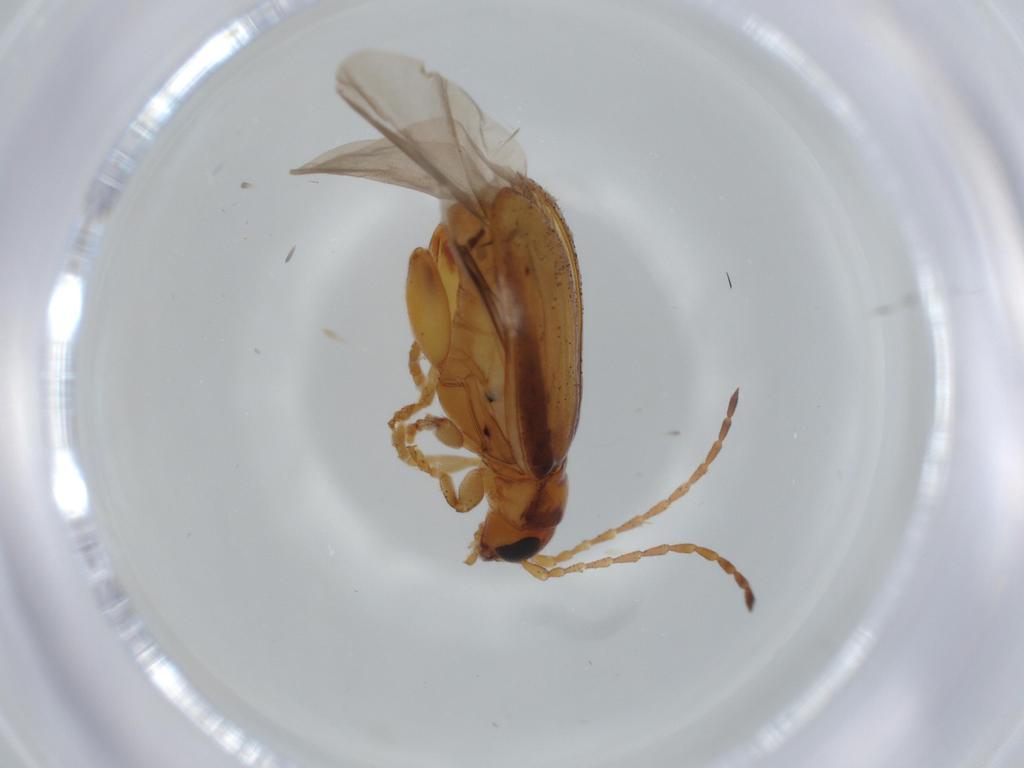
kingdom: Animalia
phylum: Arthropoda
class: Insecta
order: Coleoptera
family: Chrysomelidae
